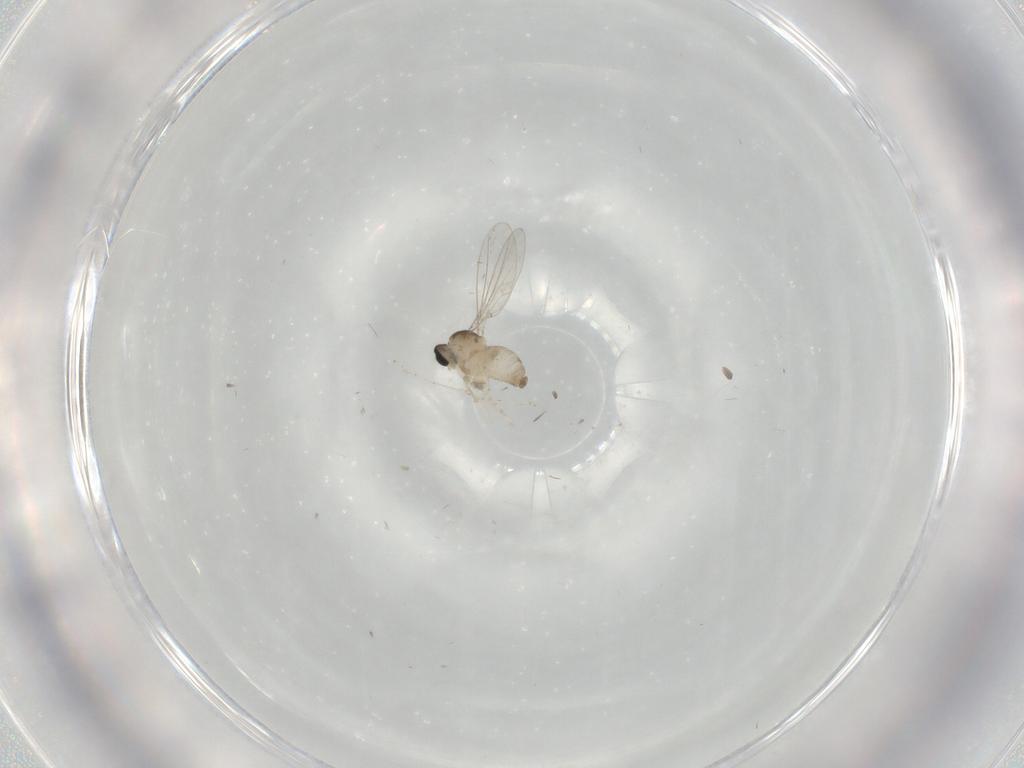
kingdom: Animalia
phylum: Arthropoda
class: Insecta
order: Diptera
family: Cecidomyiidae
